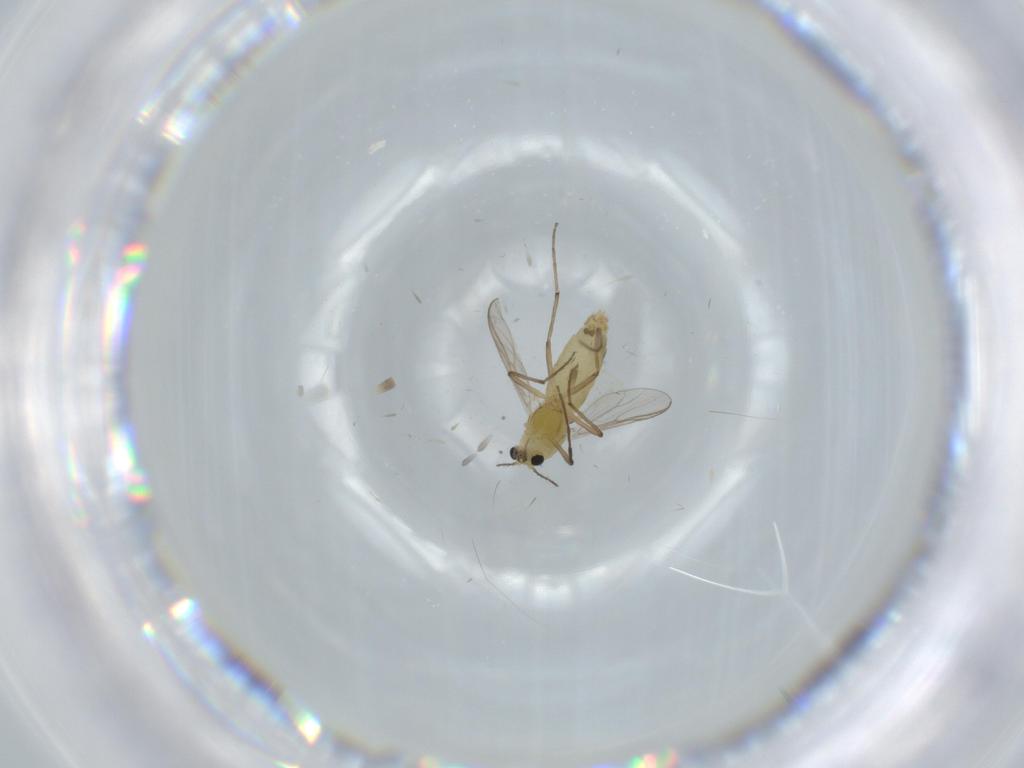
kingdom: Animalia
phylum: Arthropoda
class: Insecta
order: Diptera
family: Chironomidae
